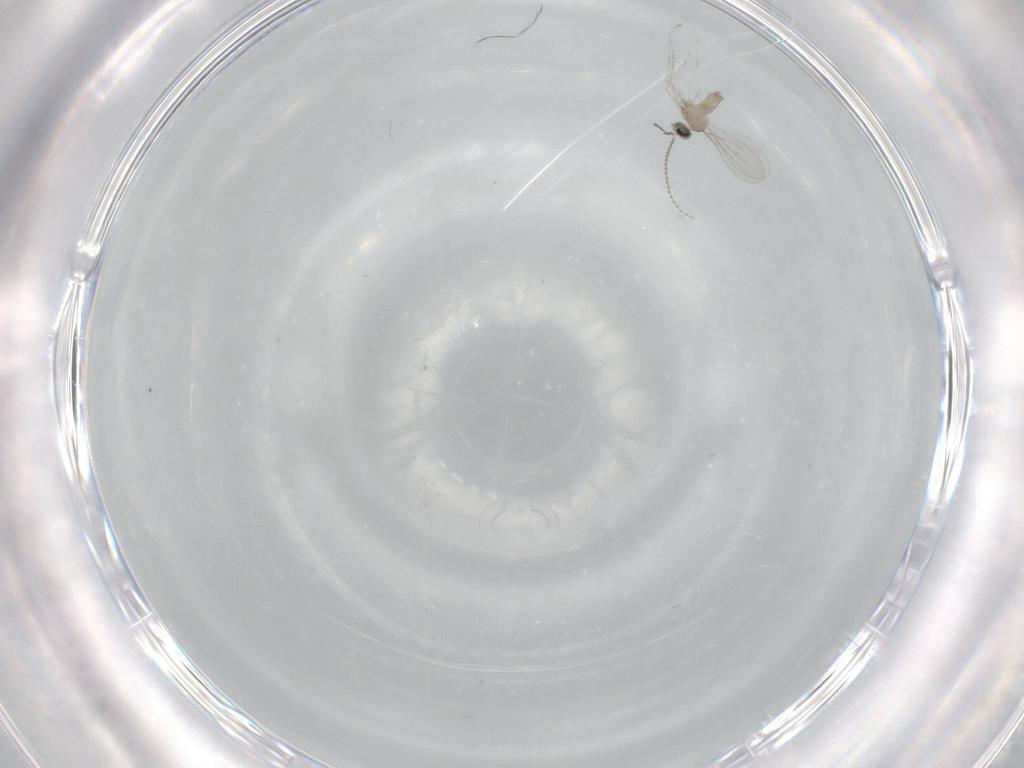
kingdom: Animalia
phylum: Arthropoda
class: Insecta
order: Diptera
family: Cecidomyiidae
